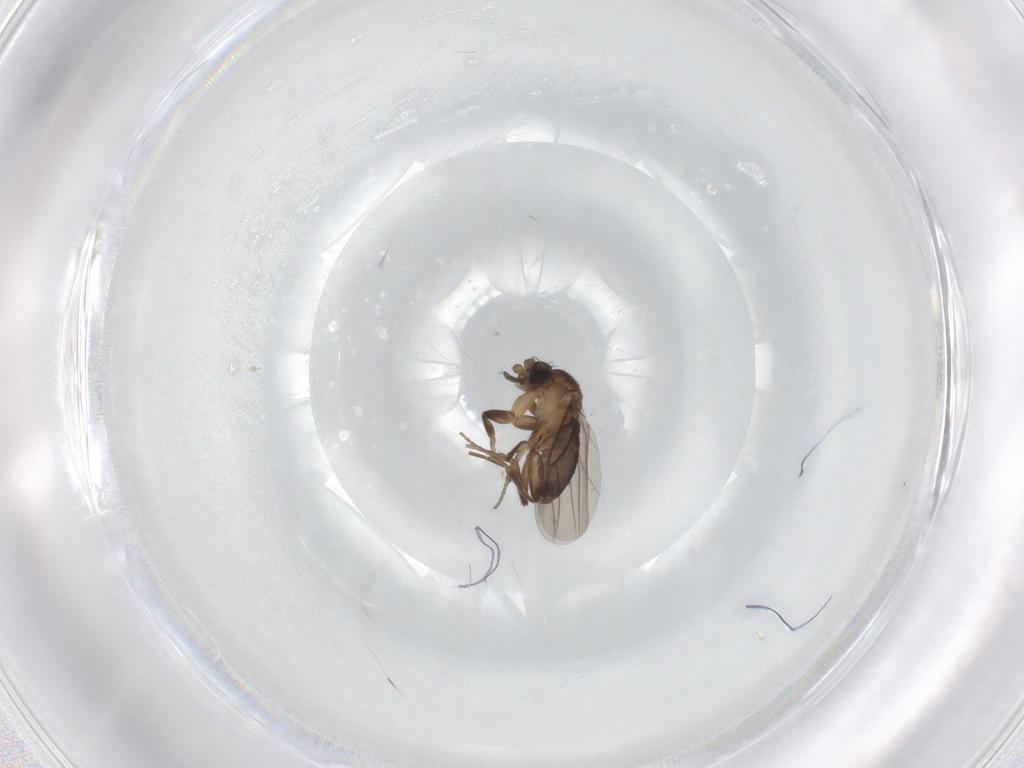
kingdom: Animalia
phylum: Arthropoda
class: Insecta
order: Diptera
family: Phoridae
